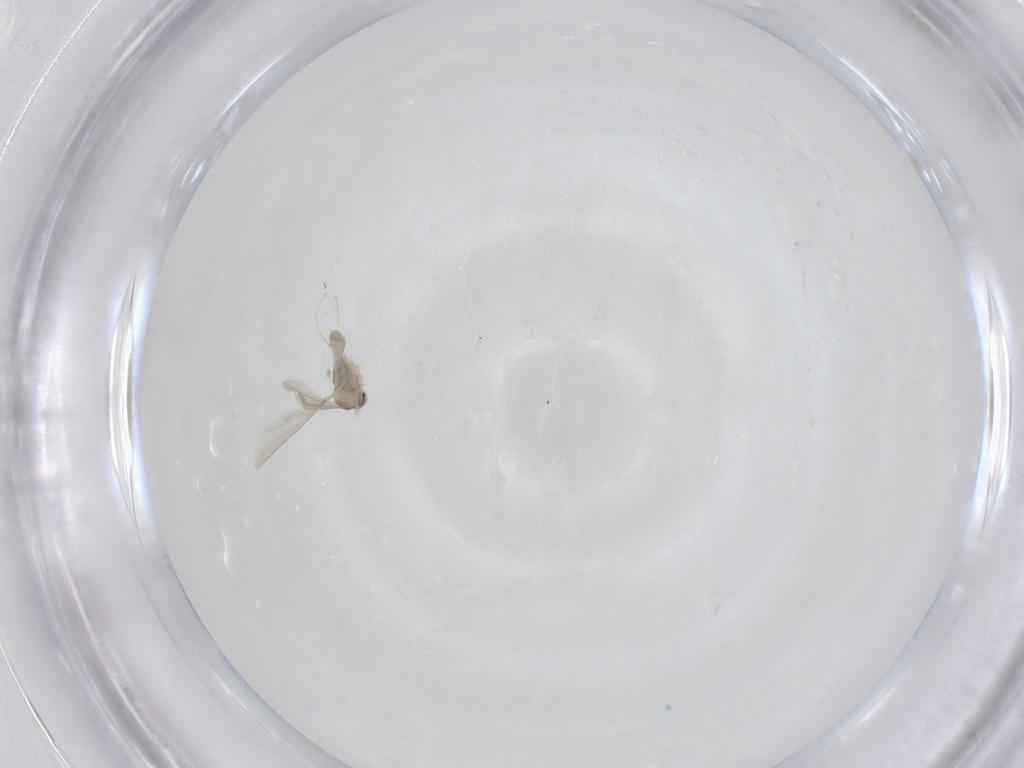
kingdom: Animalia
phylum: Arthropoda
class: Insecta
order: Diptera
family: Cecidomyiidae
